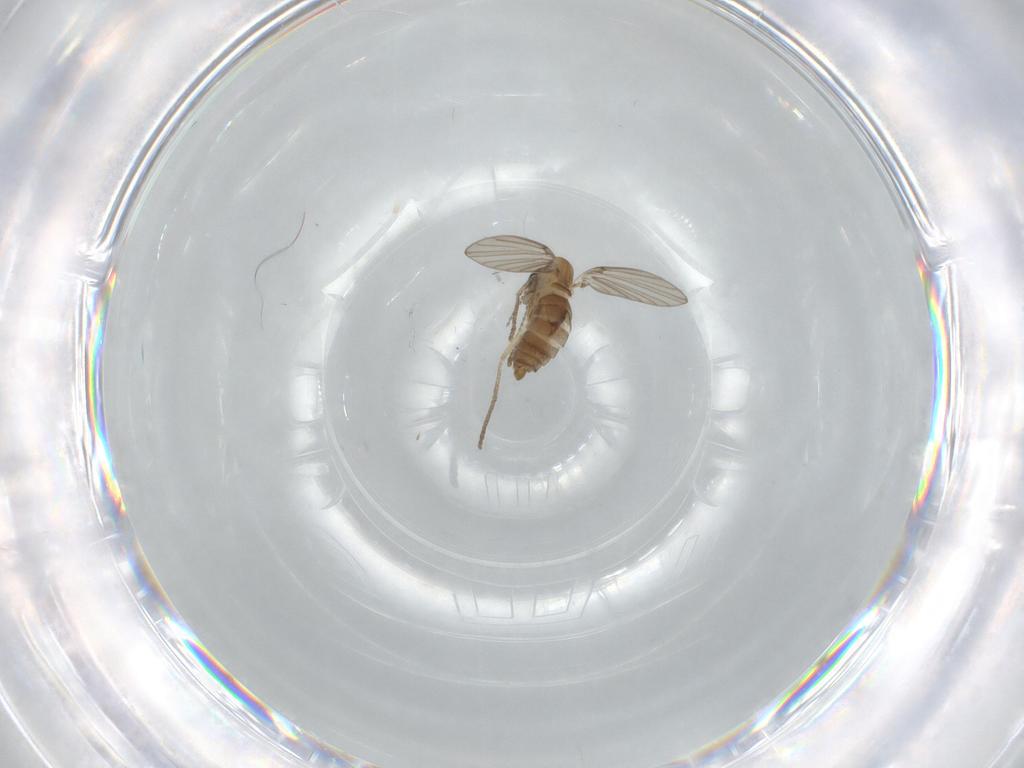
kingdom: Animalia
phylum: Arthropoda
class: Insecta
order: Diptera
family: Psychodidae
